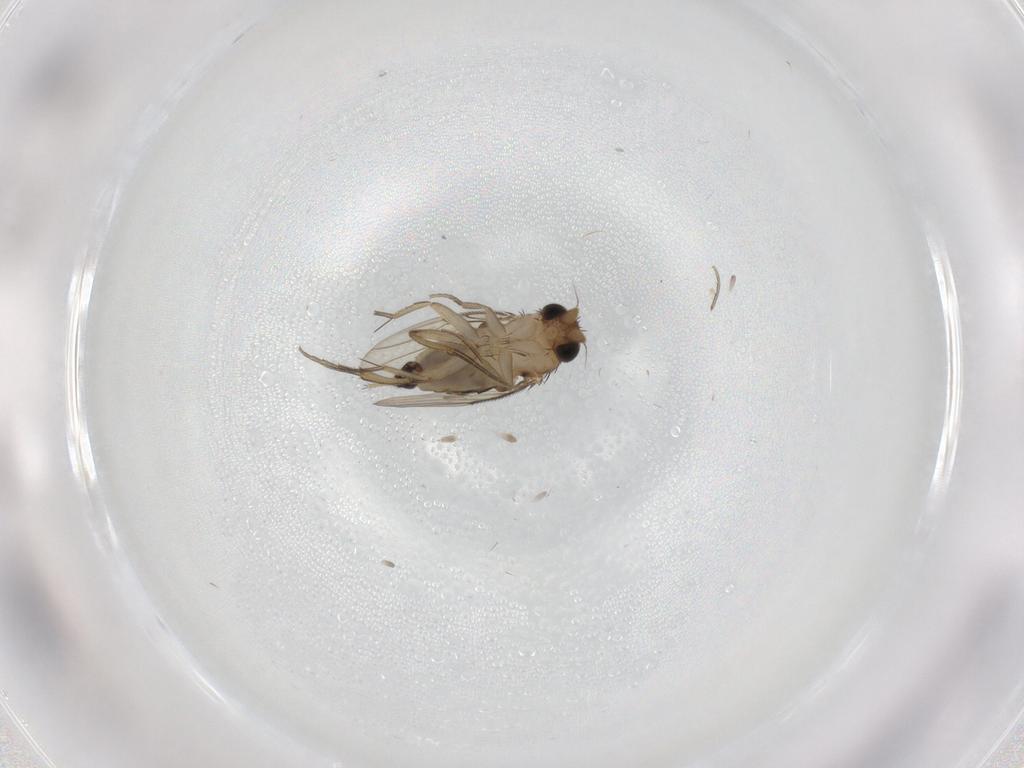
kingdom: Animalia
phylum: Arthropoda
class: Insecta
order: Diptera
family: Phoridae
